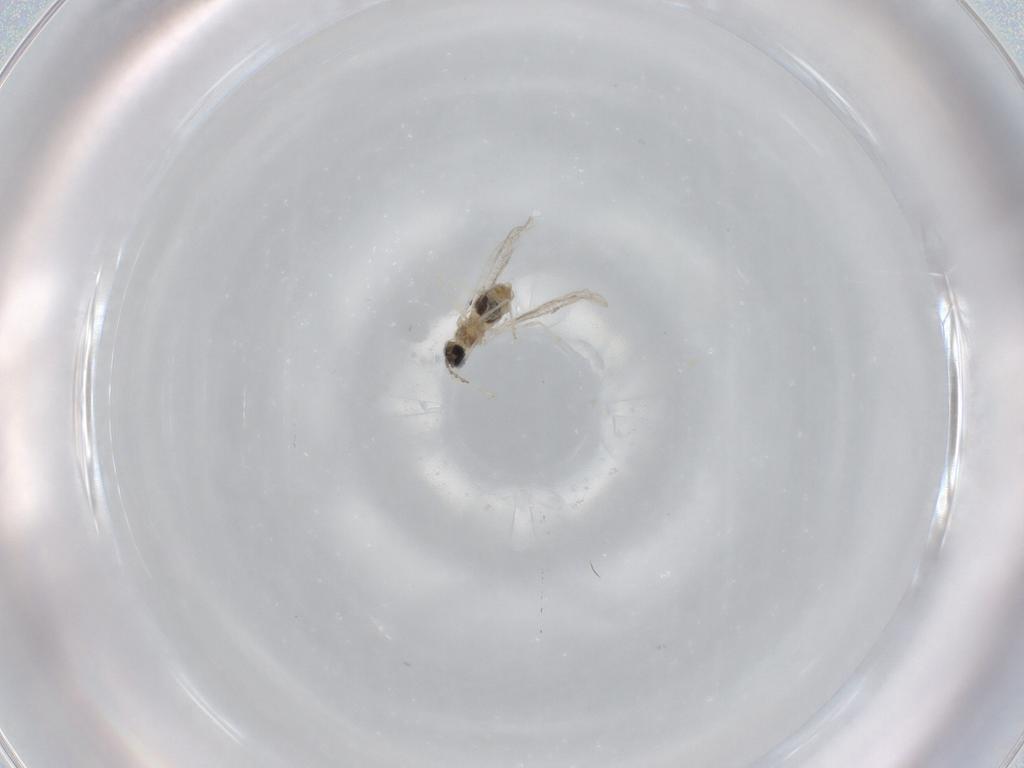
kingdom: Animalia
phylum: Arthropoda
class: Insecta
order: Diptera
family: Cecidomyiidae
